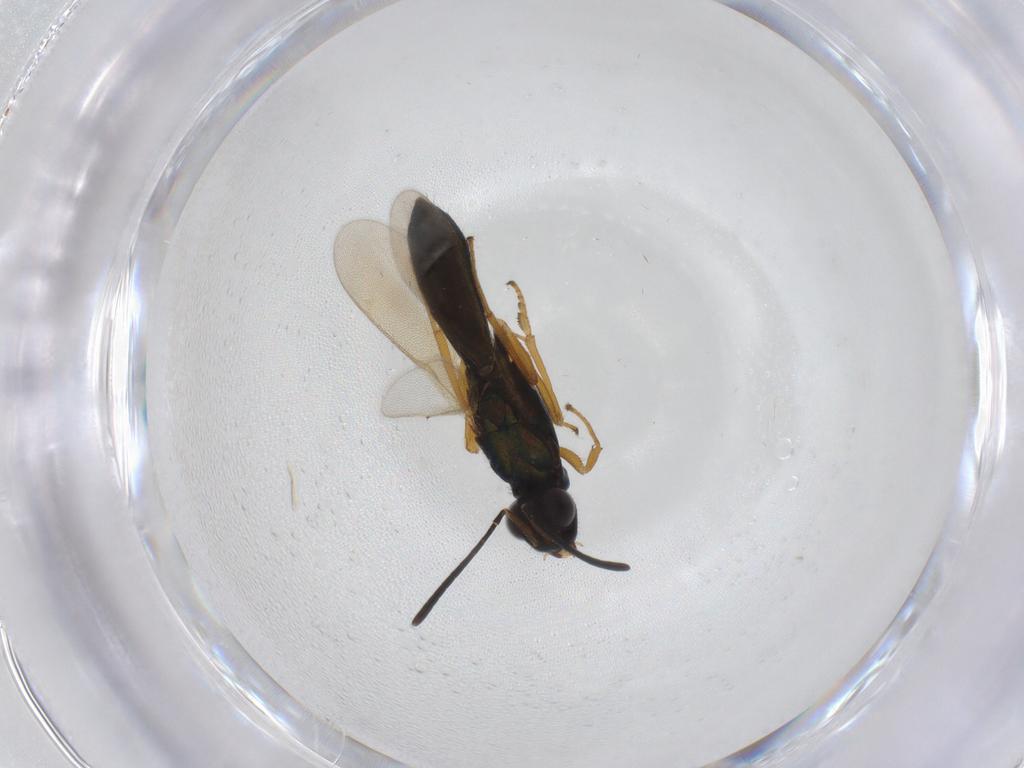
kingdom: Animalia
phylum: Arthropoda
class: Insecta
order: Hymenoptera
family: Eupelmidae
